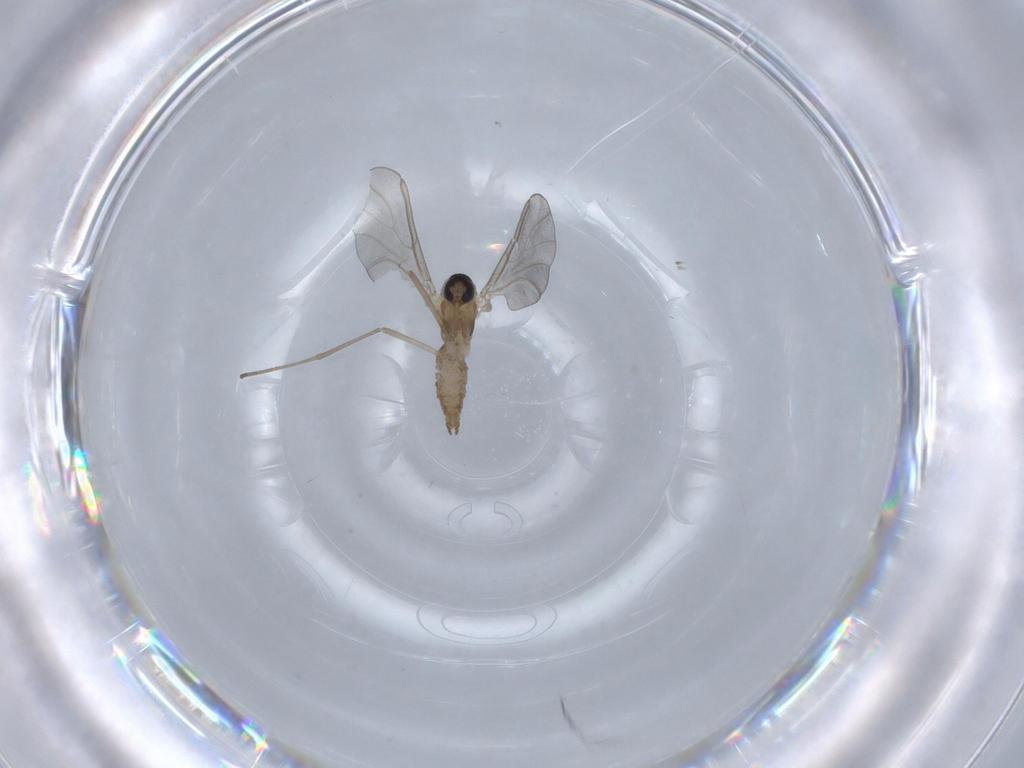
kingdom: Animalia
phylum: Arthropoda
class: Insecta
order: Diptera
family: Cecidomyiidae
